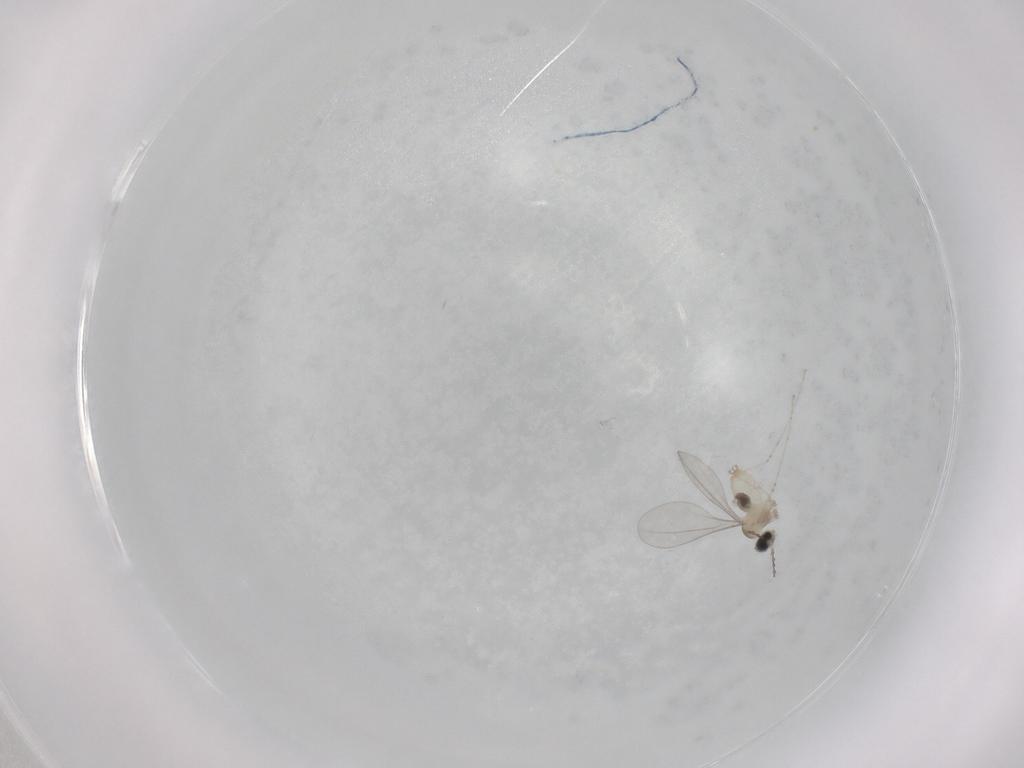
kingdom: Animalia
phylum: Arthropoda
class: Insecta
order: Diptera
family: Cecidomyiidae
